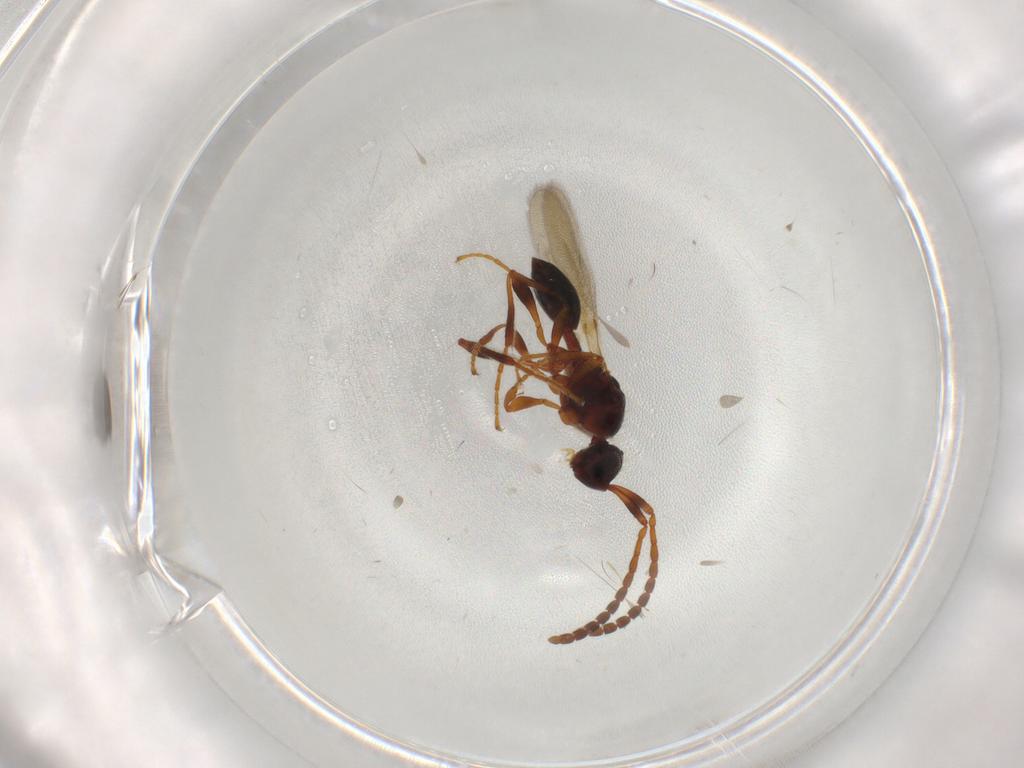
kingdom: Animalia
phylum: Arthropoda
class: Insecta
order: Hymenoptera
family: Diapriidae
